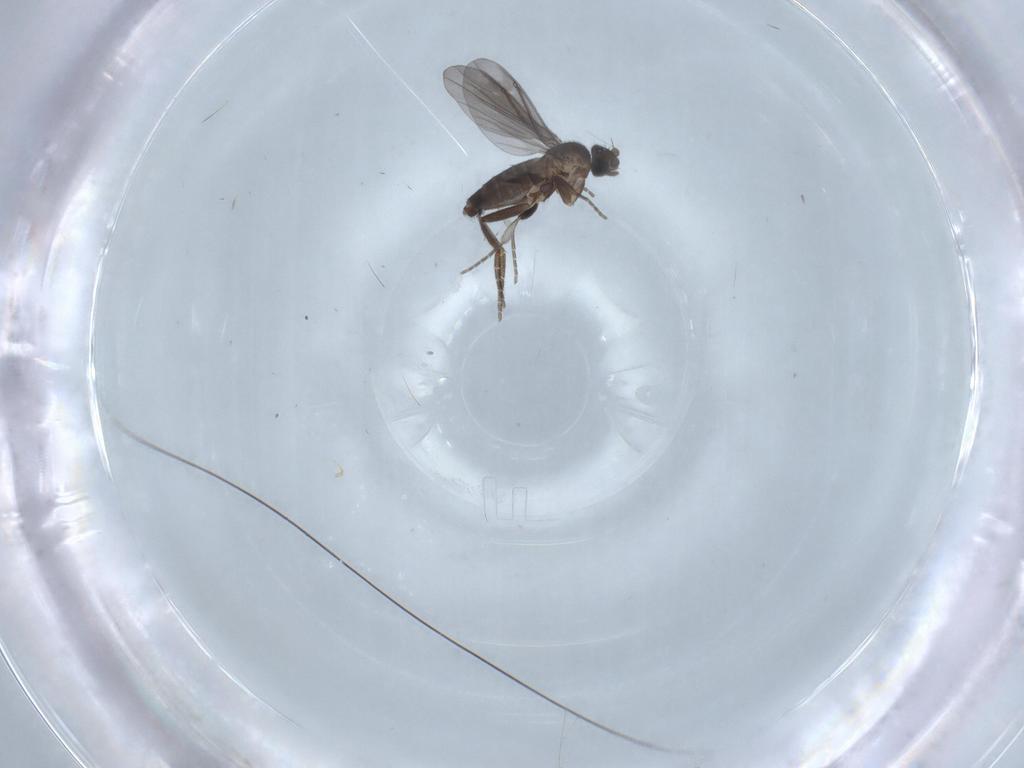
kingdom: Animalia
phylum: Arthropoda
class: Insecta
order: Diptera
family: Phoridae
